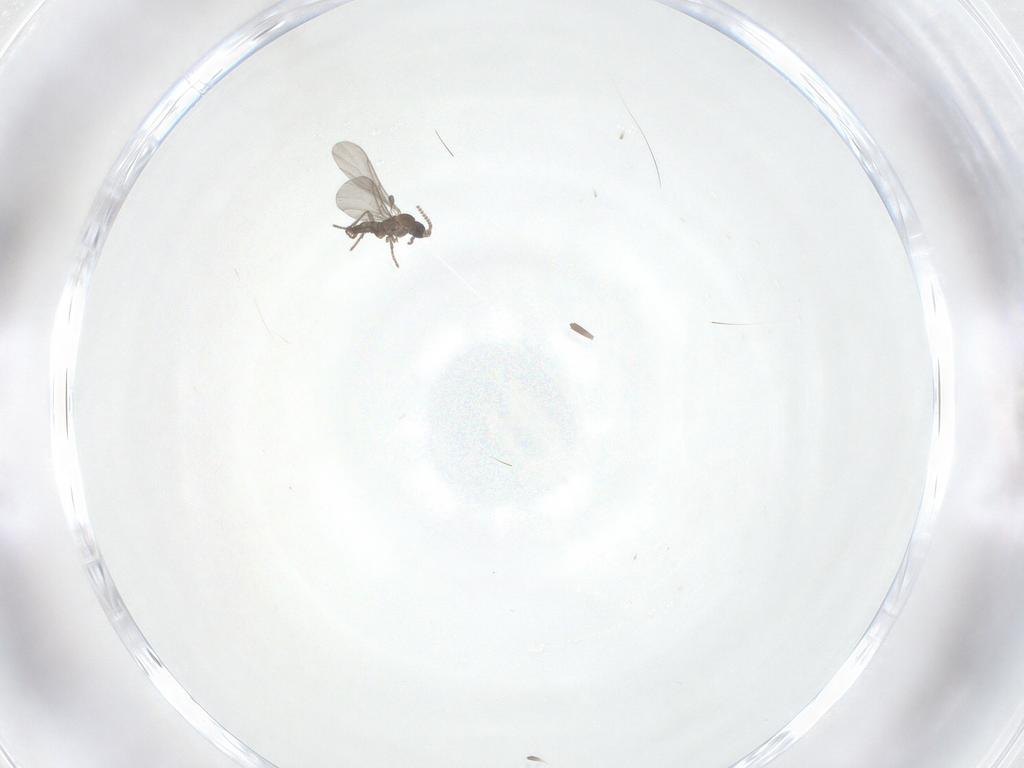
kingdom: Animalia
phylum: Arthropoda
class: Insecta
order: Diptera
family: Sciaridae
